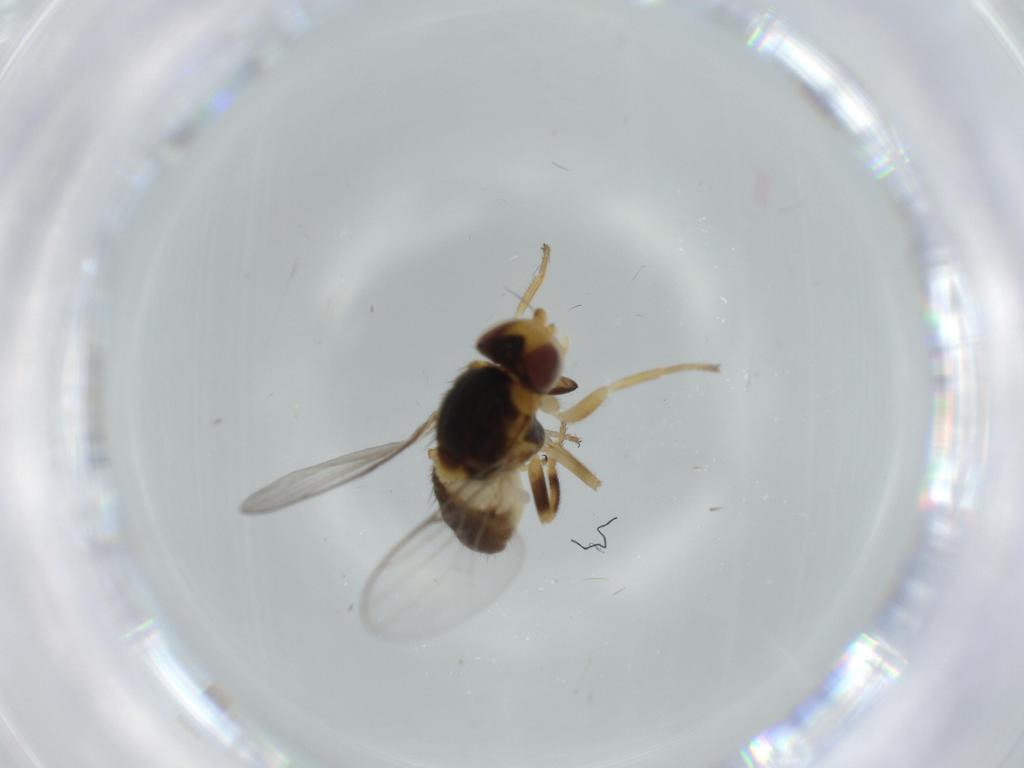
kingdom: Animalia
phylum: Arthropoda
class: Insecta
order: Diptera
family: Chloropidae
